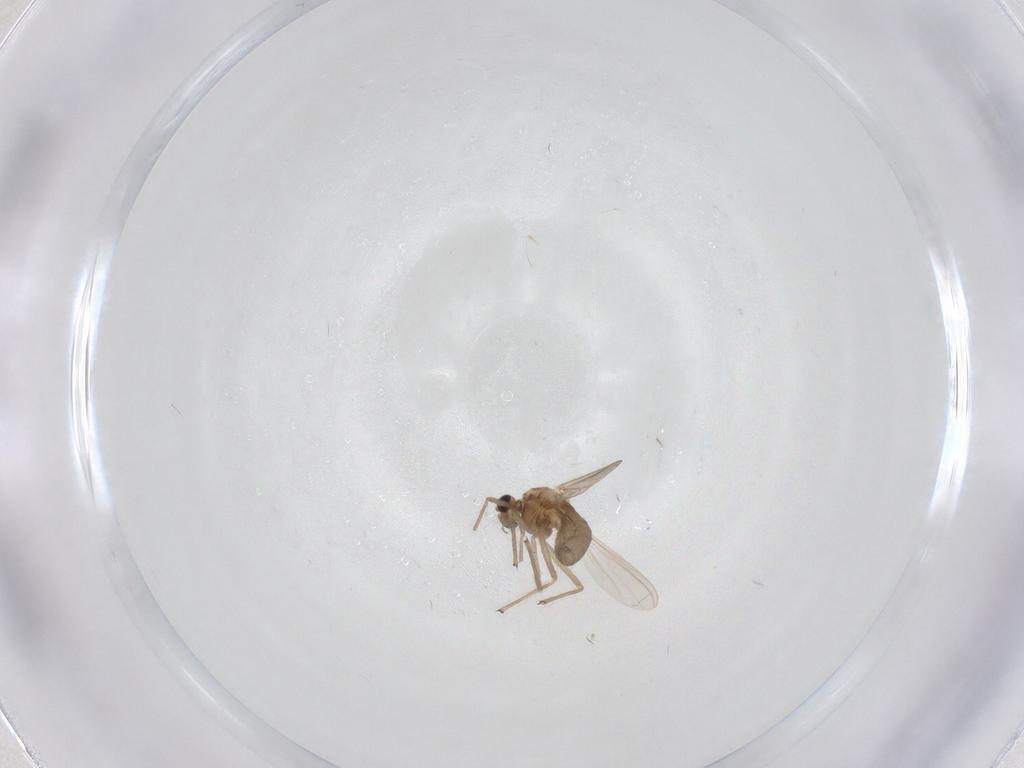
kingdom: Animalia
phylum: Arthropoda
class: Insecta
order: Diptera
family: Chironomidae
